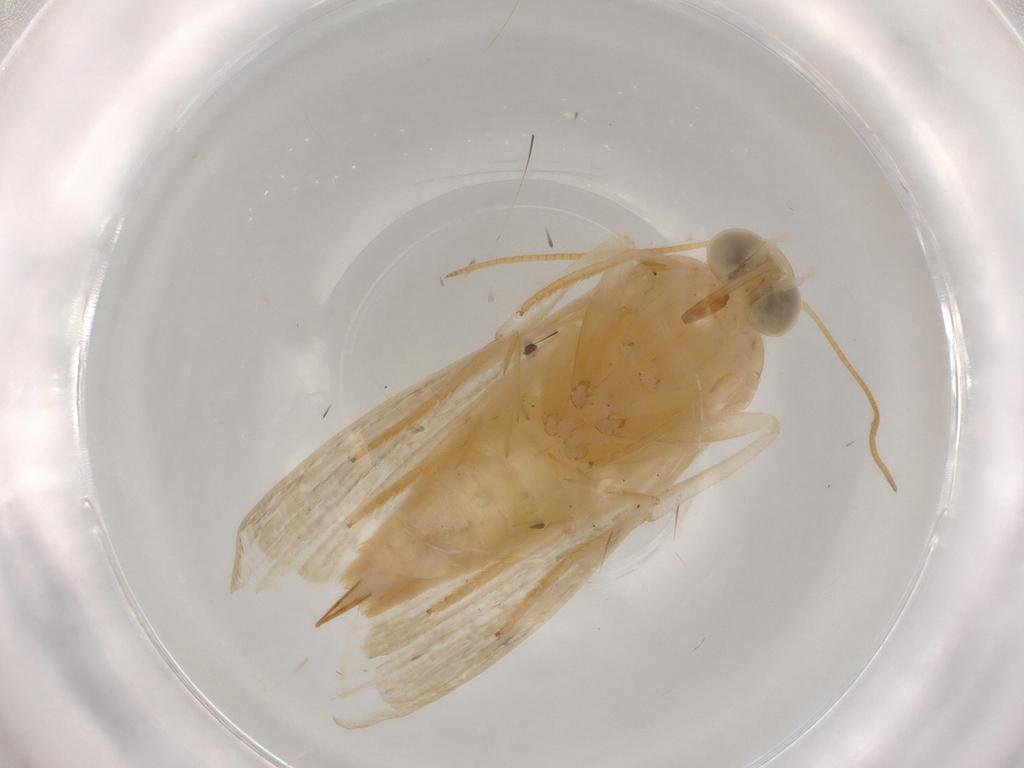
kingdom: Animalia
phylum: Arthropoda
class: Insecta
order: Lepidoptera
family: Noctuidae
